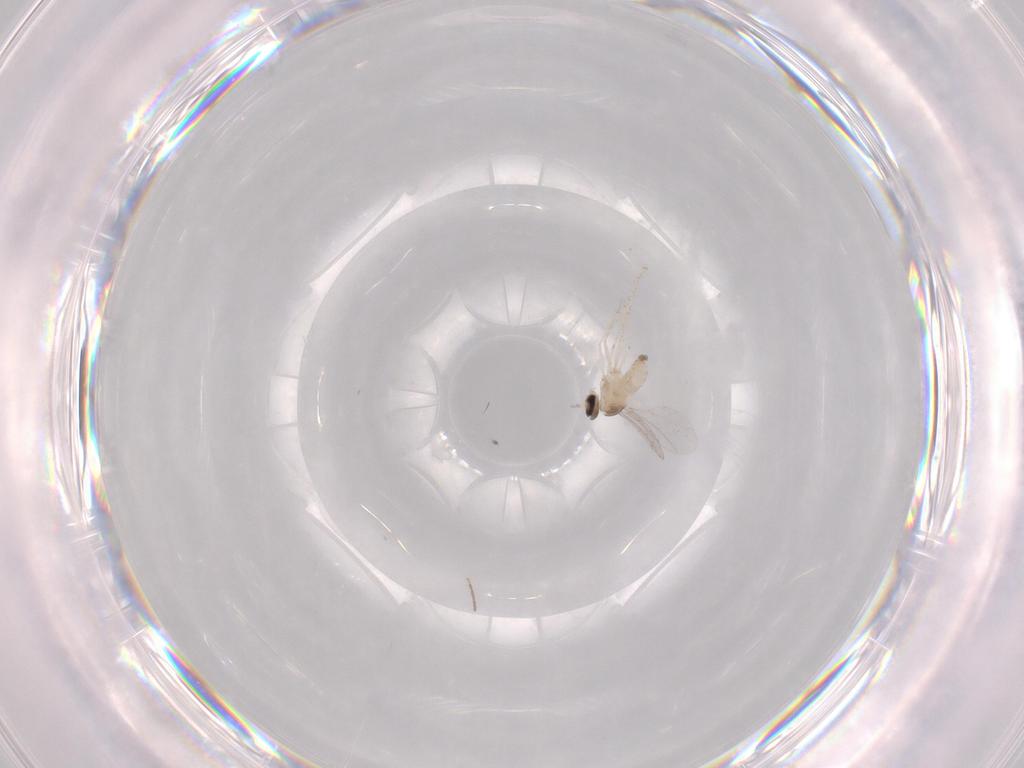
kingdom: Animalia
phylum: Arthropoda
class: Insecta
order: Diptera
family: Cecidomyiidae
